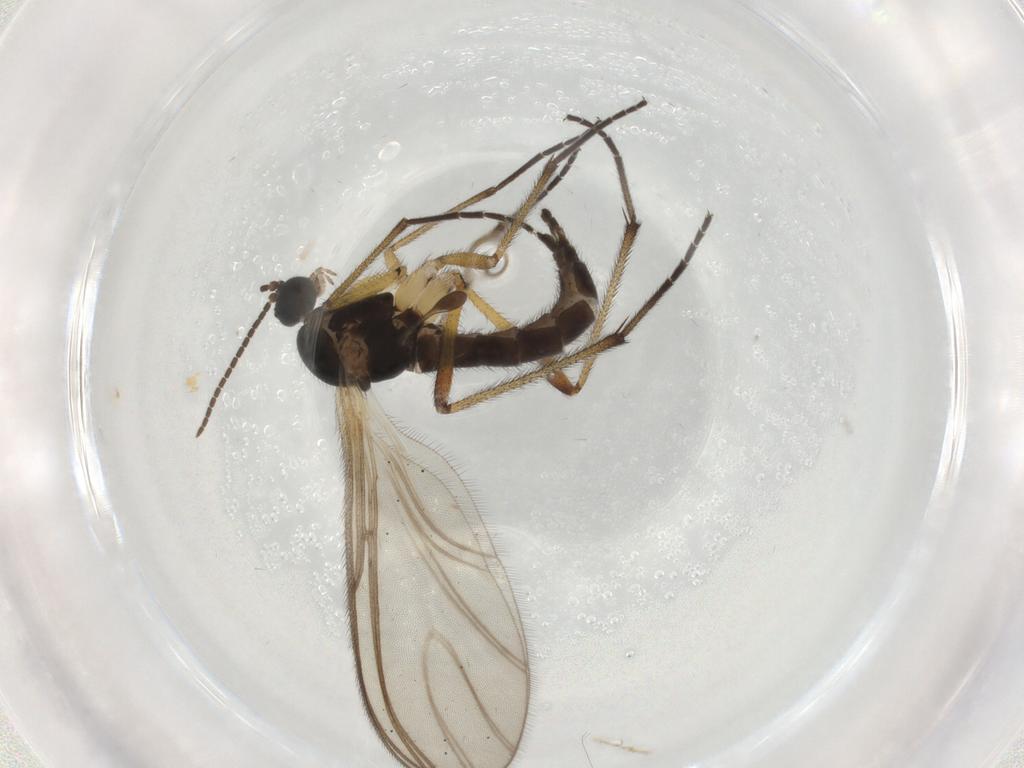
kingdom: Animalia
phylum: Arthropoda
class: Insecta
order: Diptera
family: Sciaridae
